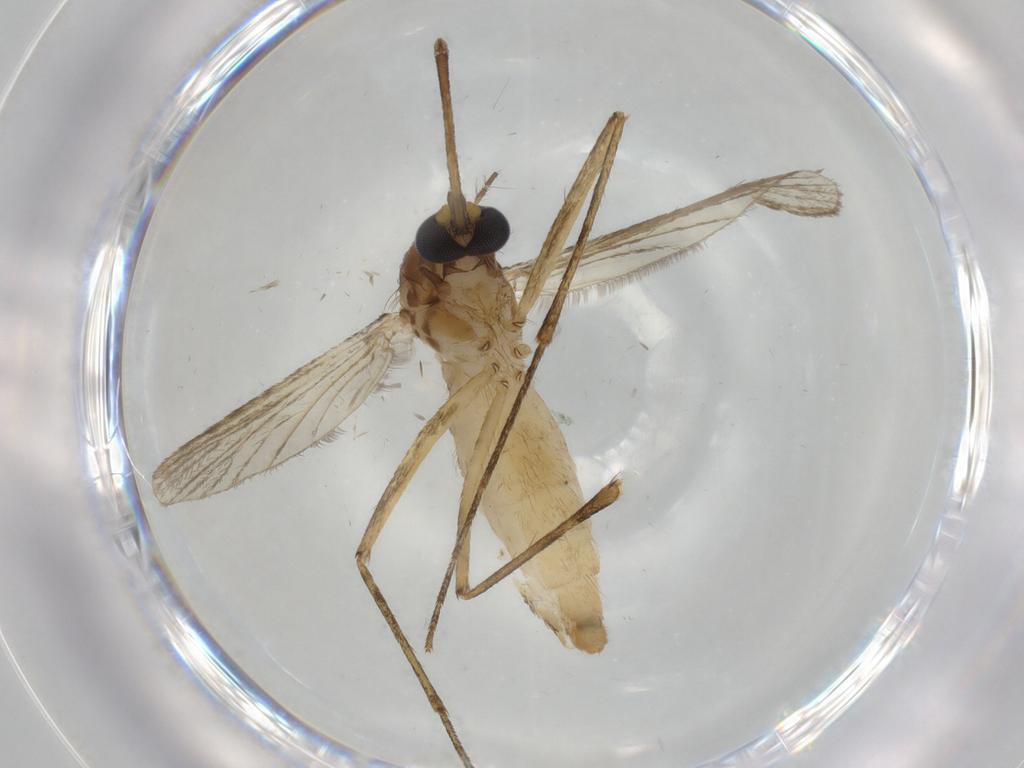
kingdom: Animalia
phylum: Arthropoda
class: Insecta
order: Diptera
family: Culicidae
